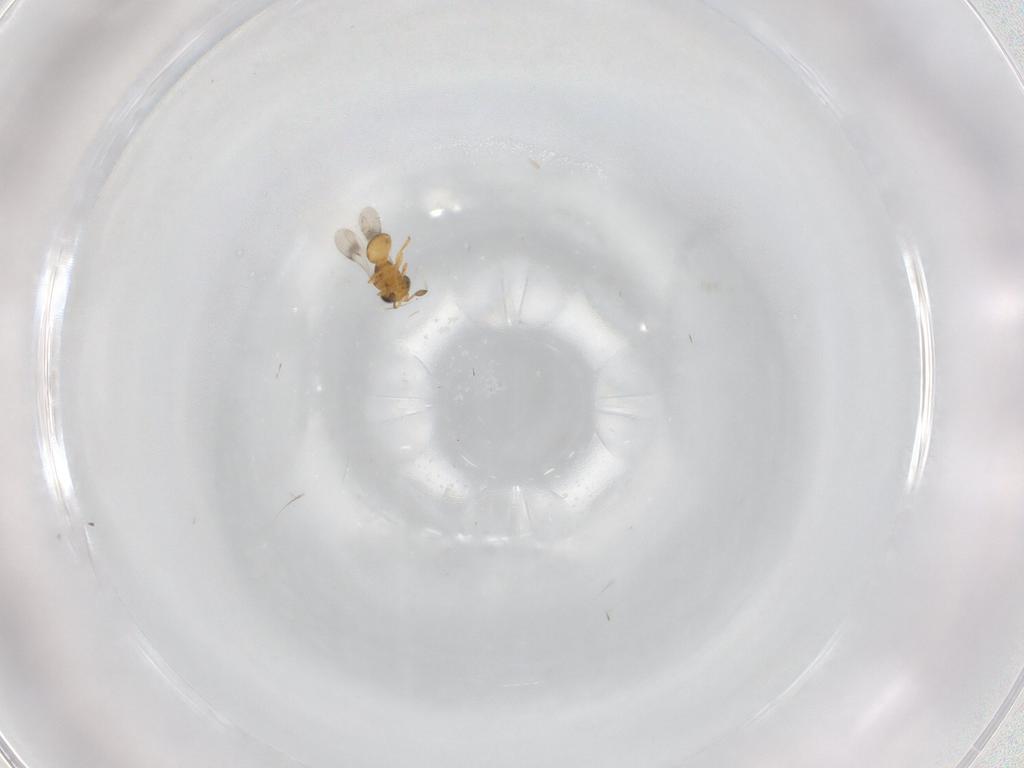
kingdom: Animalia
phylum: Arthropoda
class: Insecta
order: Hymenoptera
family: Scelionidae
